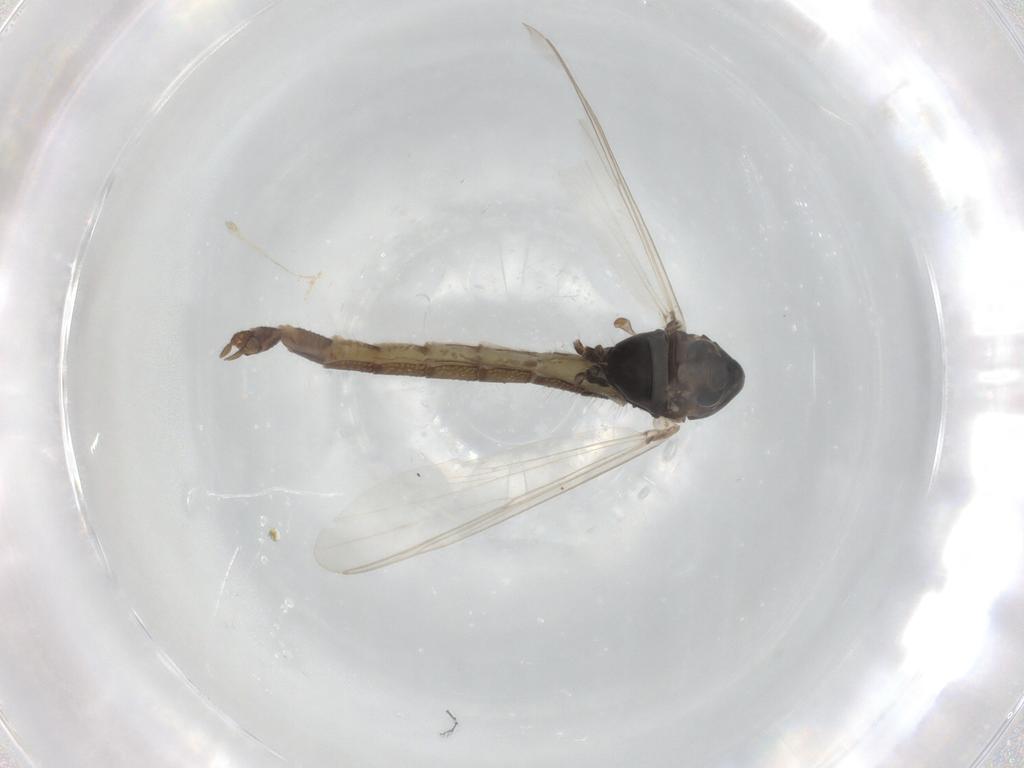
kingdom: Animalia
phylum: Arthropoda
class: Insecta
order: Diptera
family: Chironomidae
